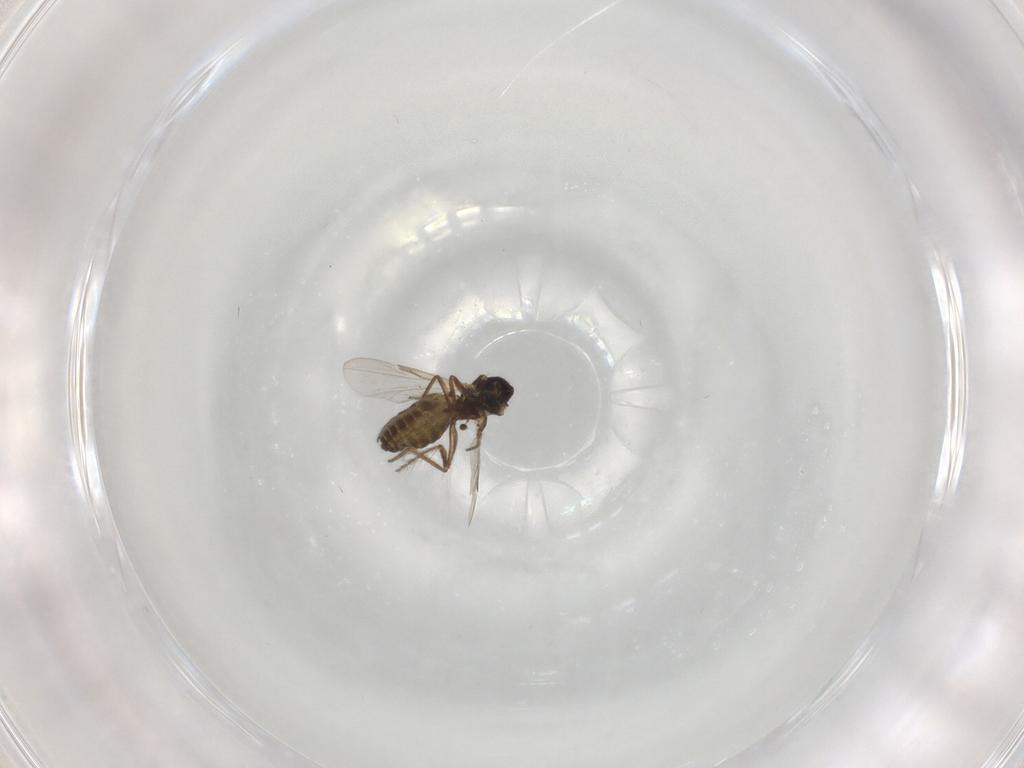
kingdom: Animalia
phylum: Arthropoda
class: Insecta
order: Diptera
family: Ceratopogonidae
